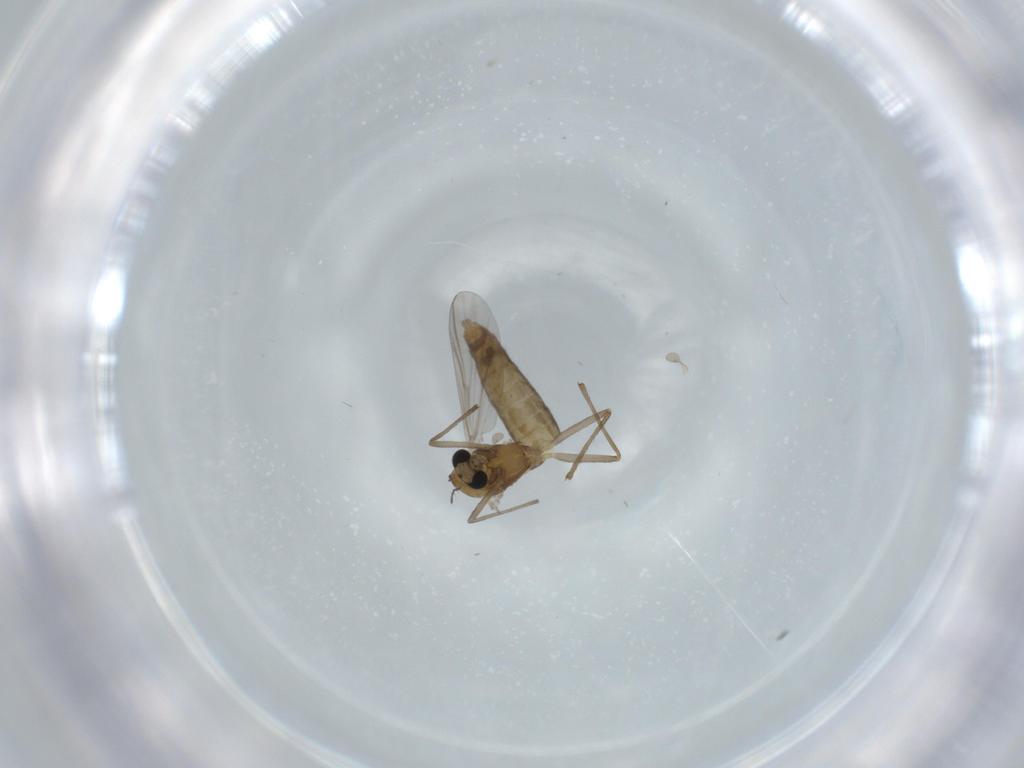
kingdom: Animalia
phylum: Arthropoda
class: Insecta
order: Diptera
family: Chironomidae
